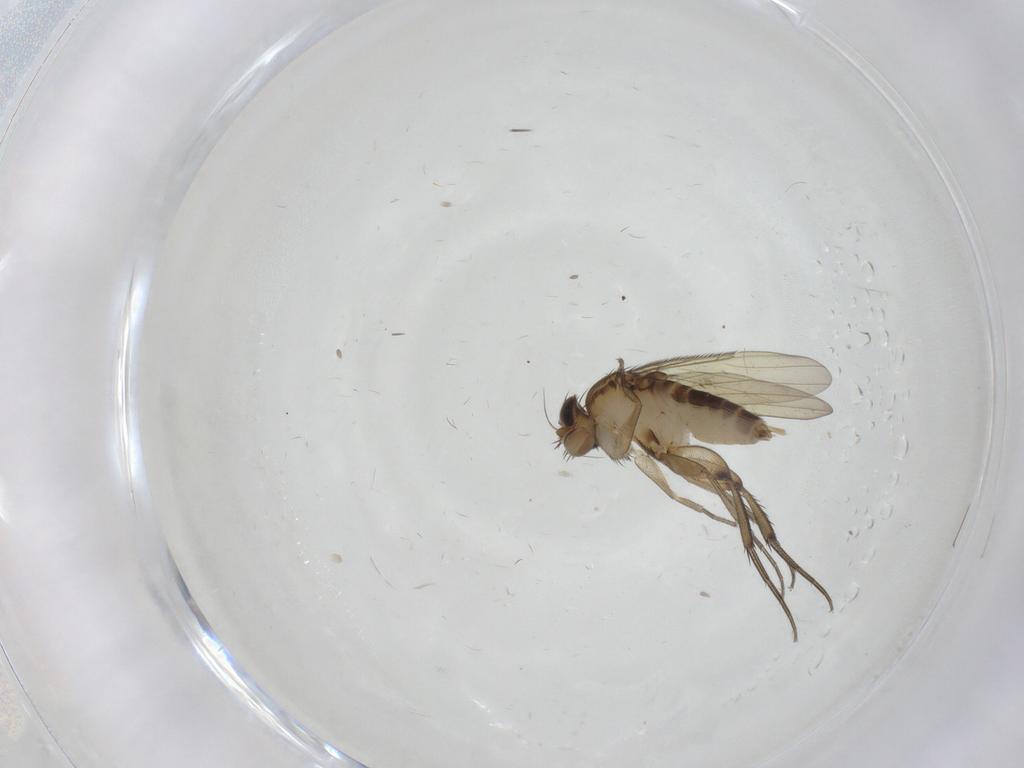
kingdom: Animalia
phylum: Arthropoda
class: Insecta
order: Diptera
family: Phoridae
